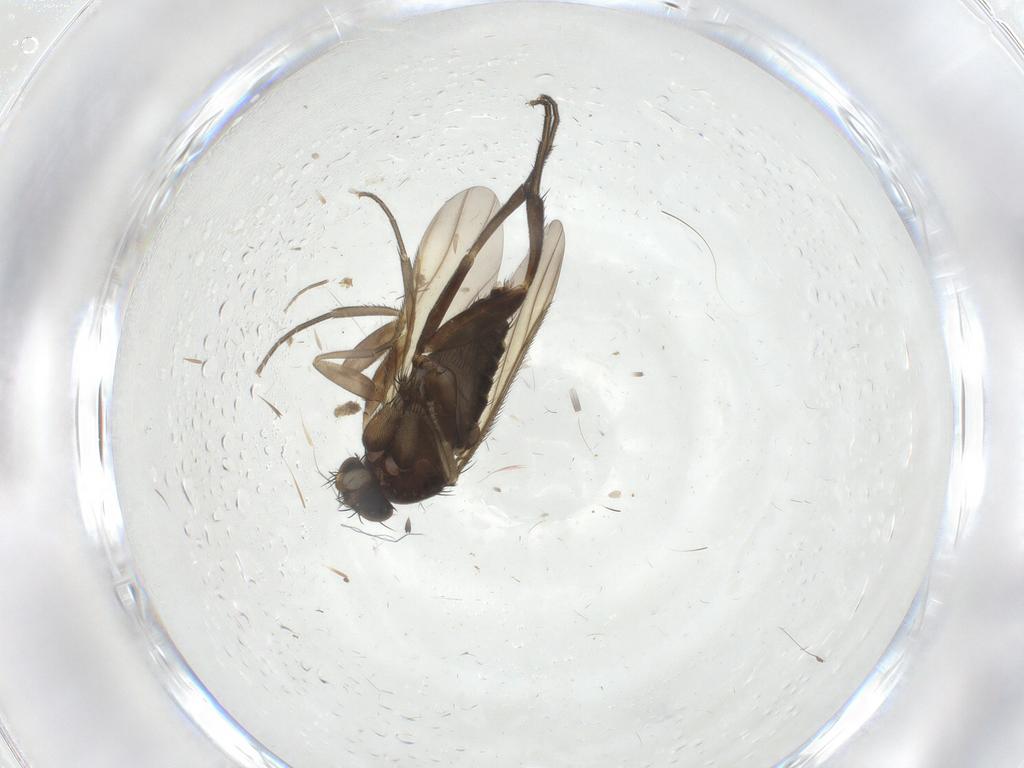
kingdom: Animalia
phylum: Arthropoda
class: Insecta
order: Diptera
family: Phoridae
